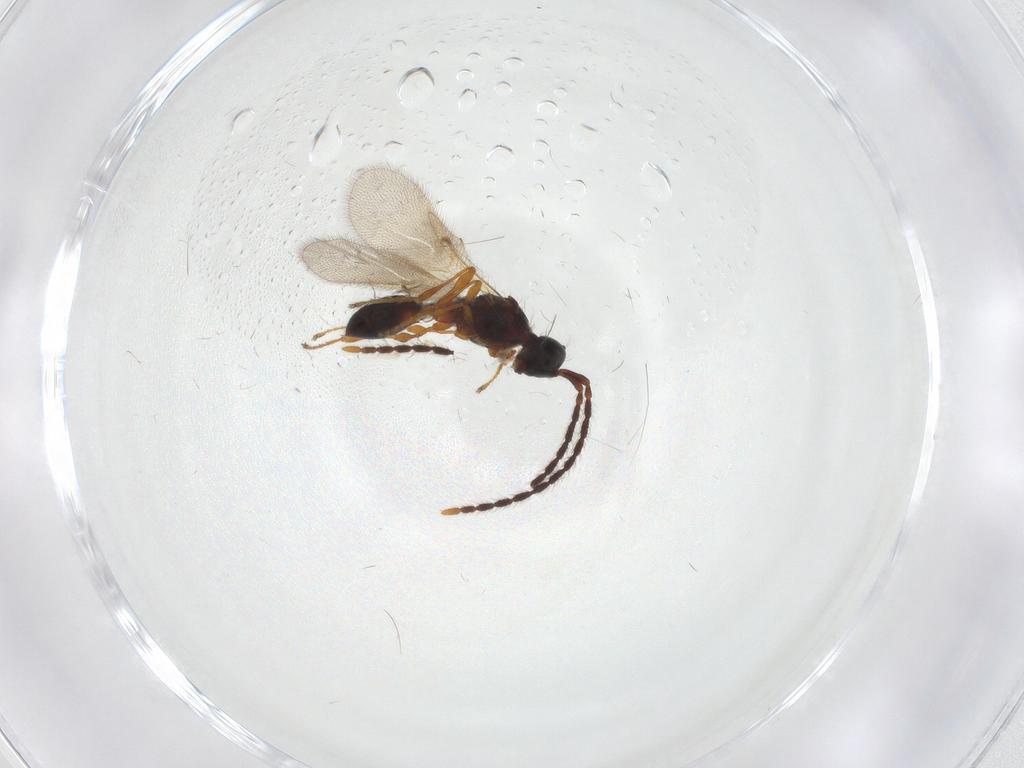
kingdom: Animalia
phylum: Arthropoda
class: Insecta
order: Hymenoptera
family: Diapriidae
